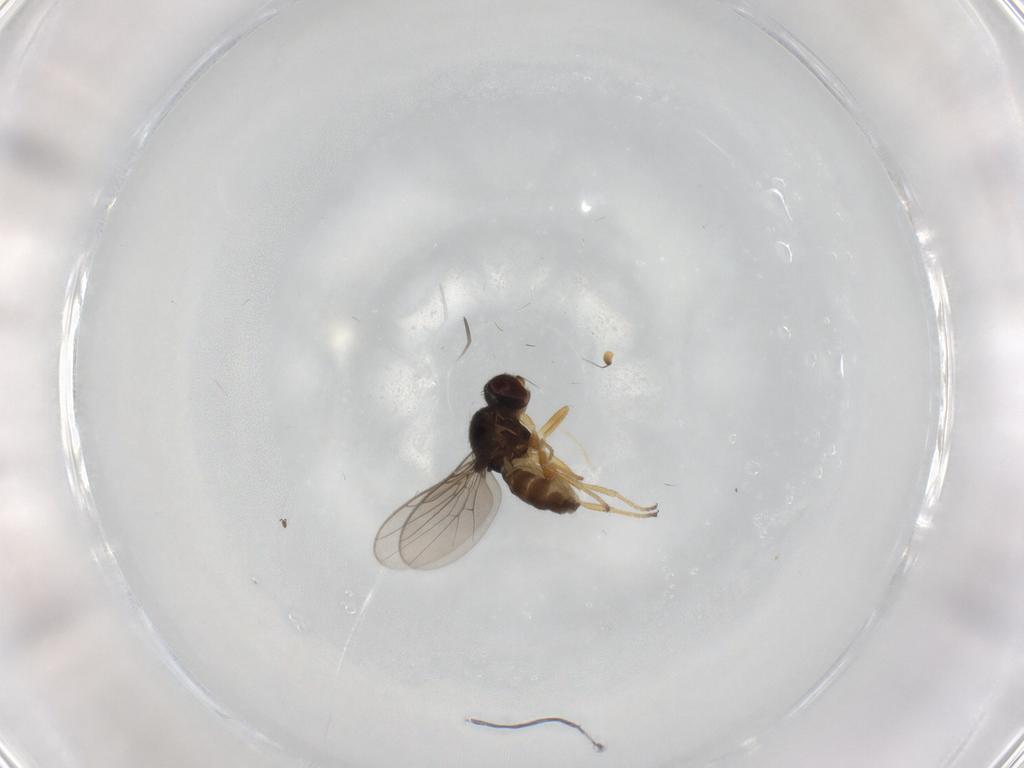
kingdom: Animalia
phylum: Arthropoda
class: Insecta
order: Diptera
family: Chloropidae
